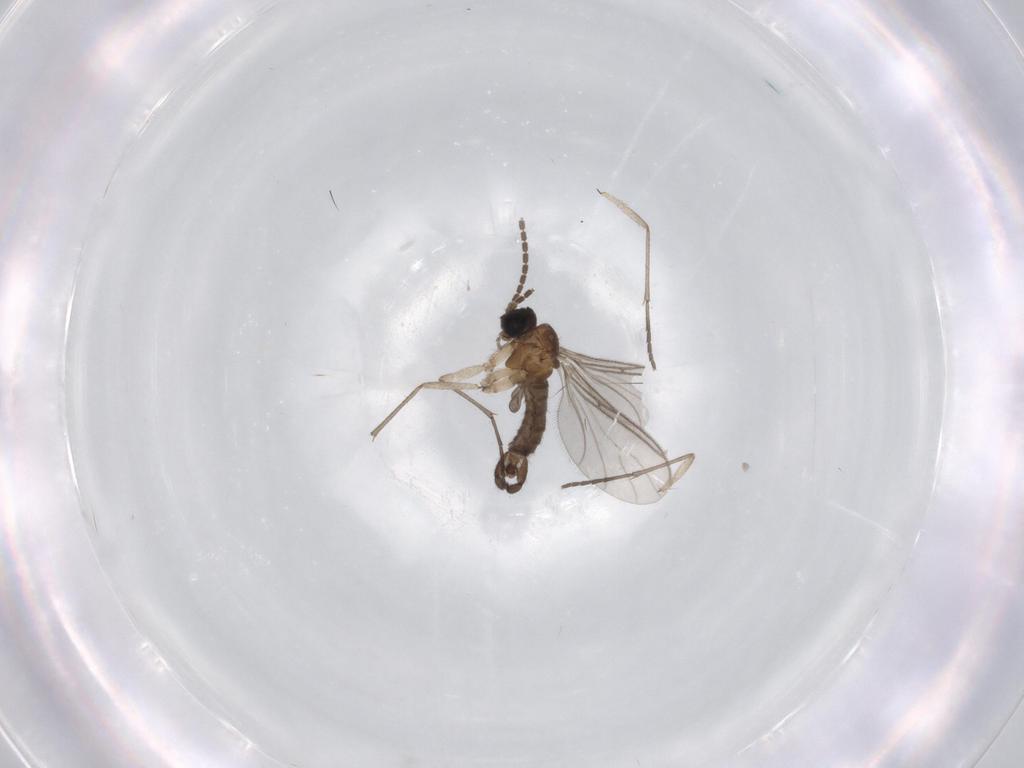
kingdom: Animalia
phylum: Arthropoda
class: Insecta
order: Diptera
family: Sciaridae
